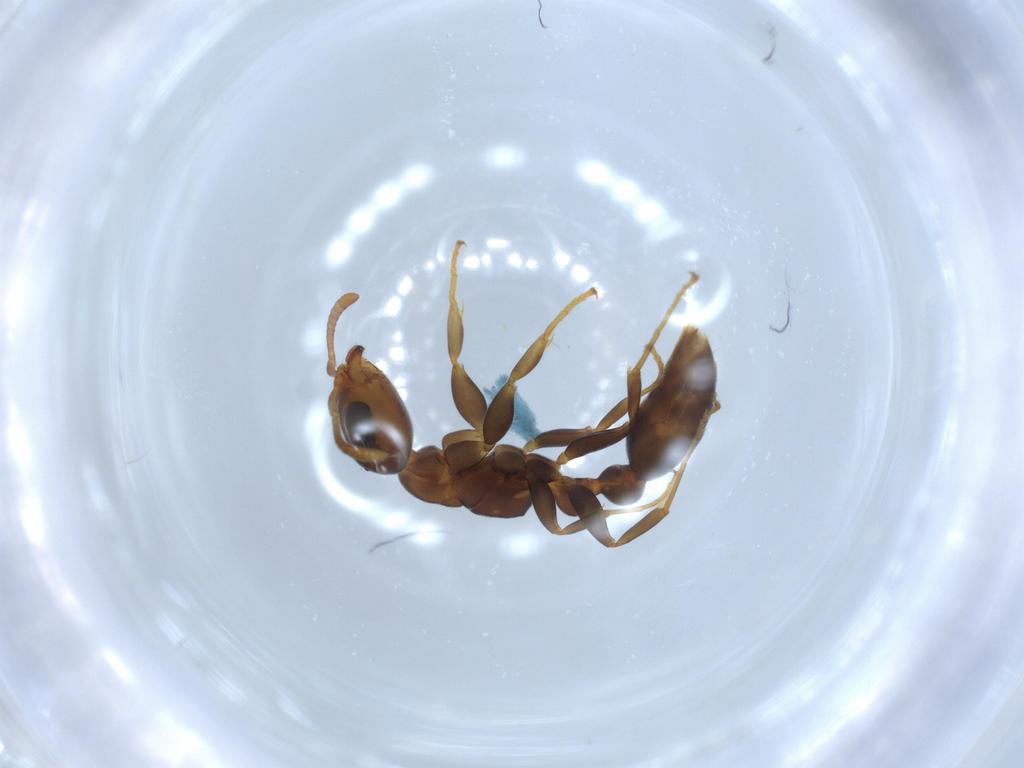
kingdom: Animalia
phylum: Arthropoda
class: Insecta
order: Hymenoptera
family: Formicidae
